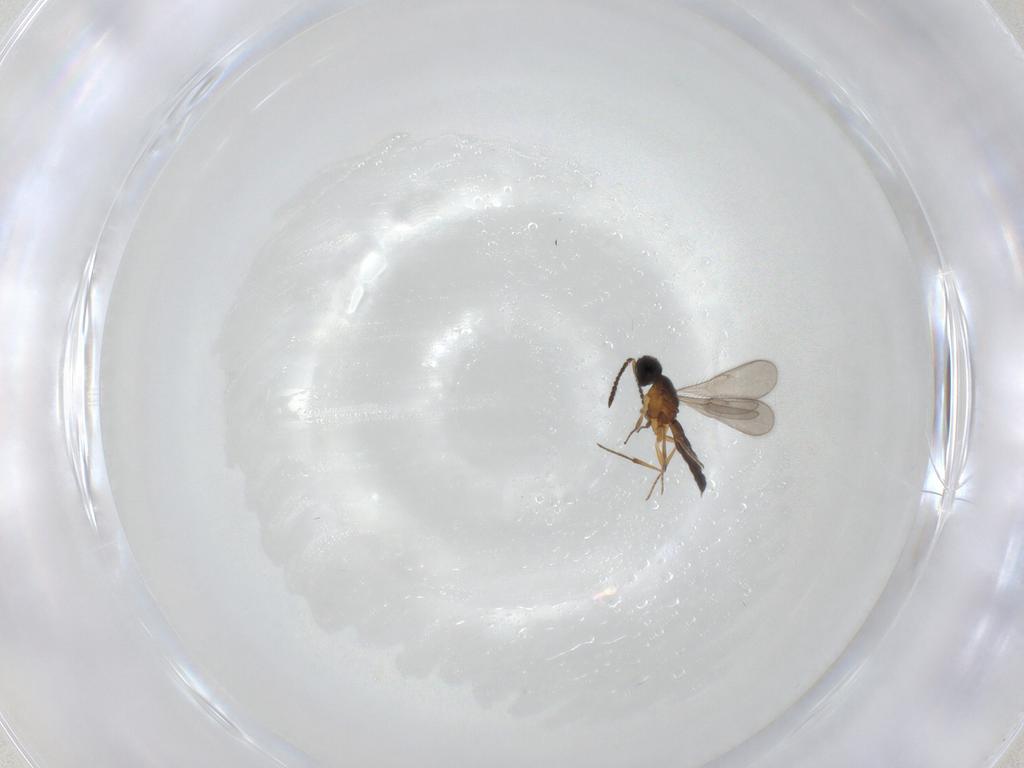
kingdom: Animalia
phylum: Arthropoda
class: Insecta
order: Hymenoptera
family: Scelionidae
